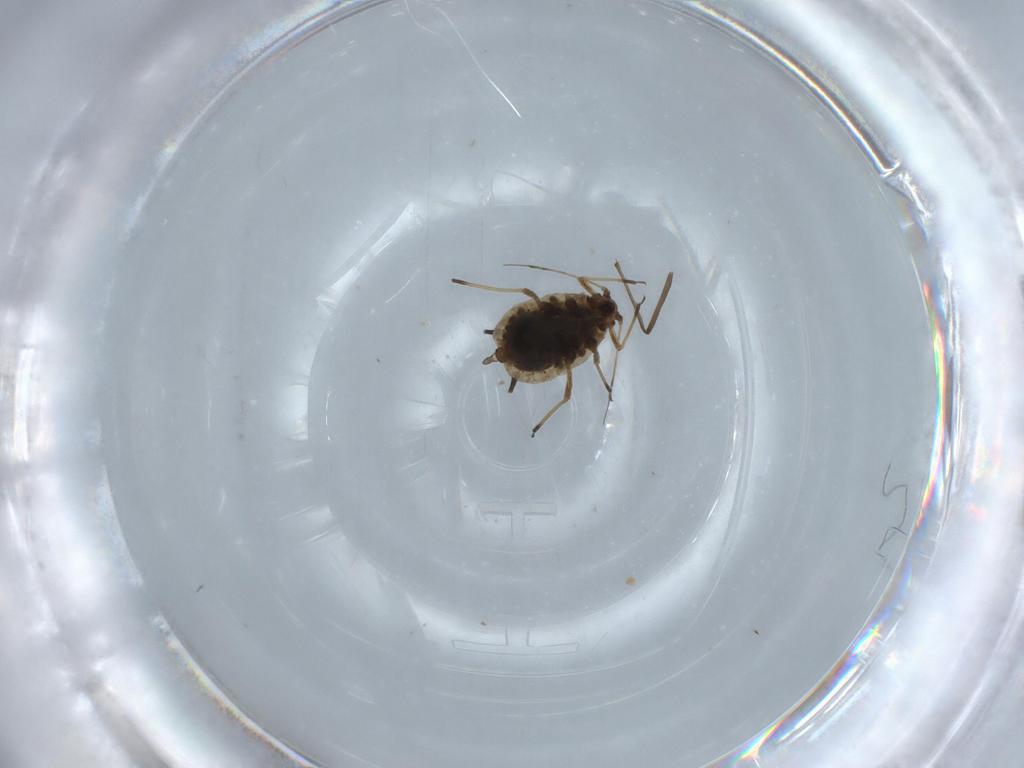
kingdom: Animalia
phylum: Arthropoda
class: Insecta
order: Hemiptera
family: Aphididae
